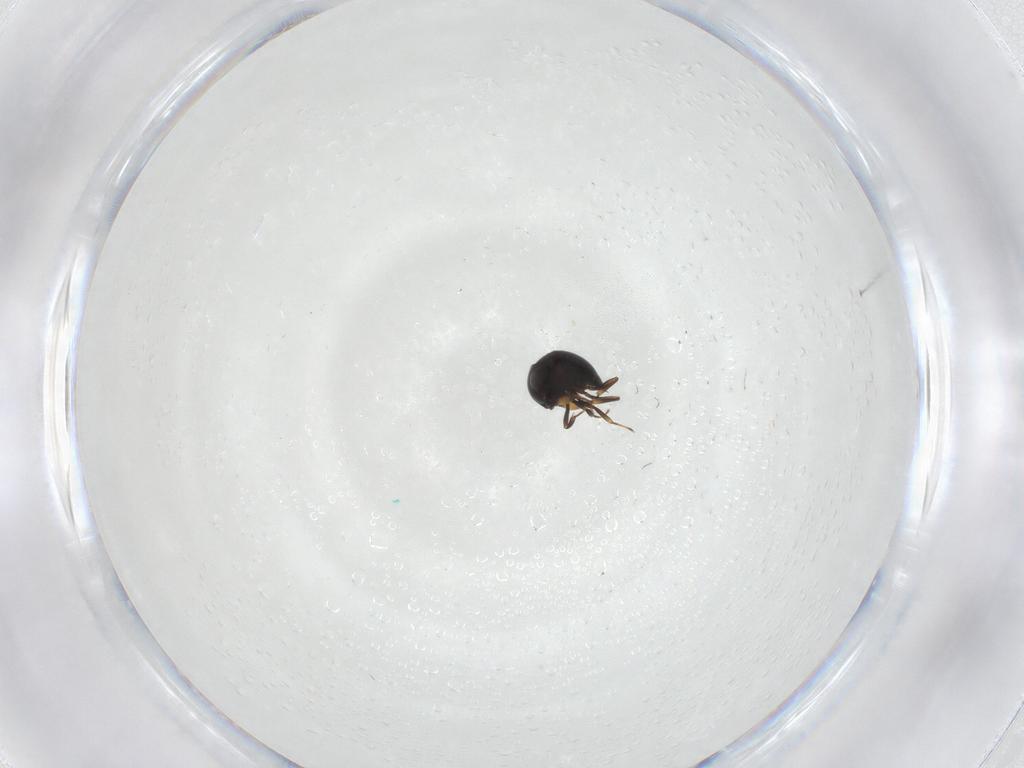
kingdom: Animalia
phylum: Arthropoda
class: Insecta
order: Hymenoptera
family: Scelionidae
